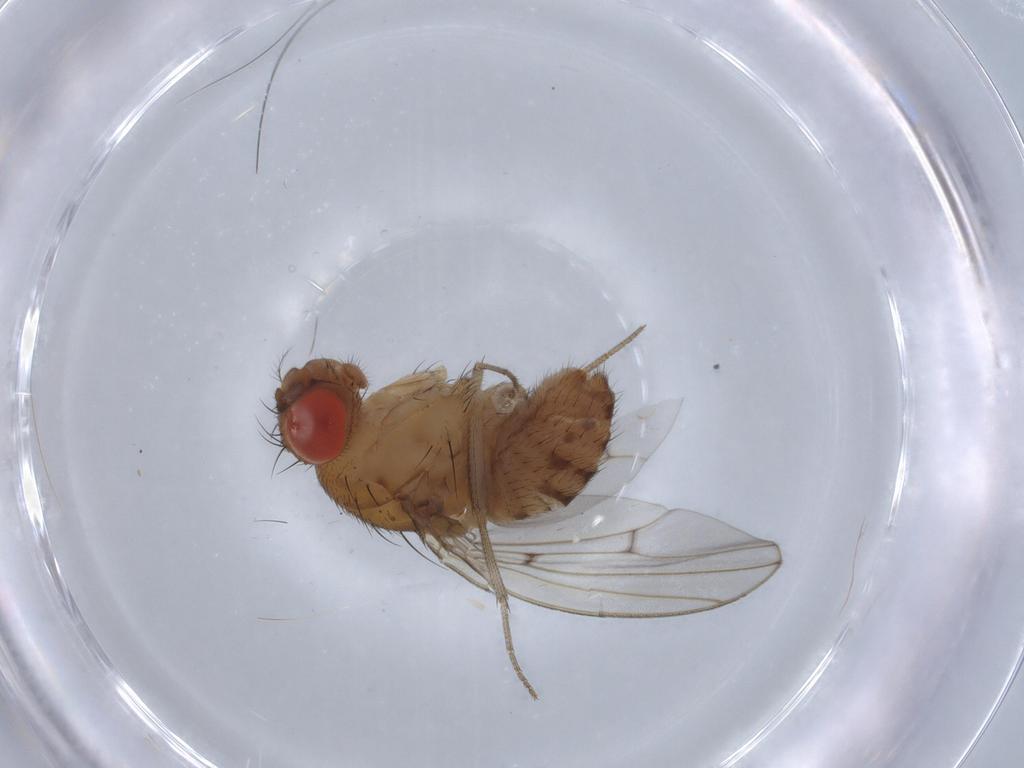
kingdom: Animalia
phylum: Arthropoda
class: Insecta
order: Diptera
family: Drosophilidae
